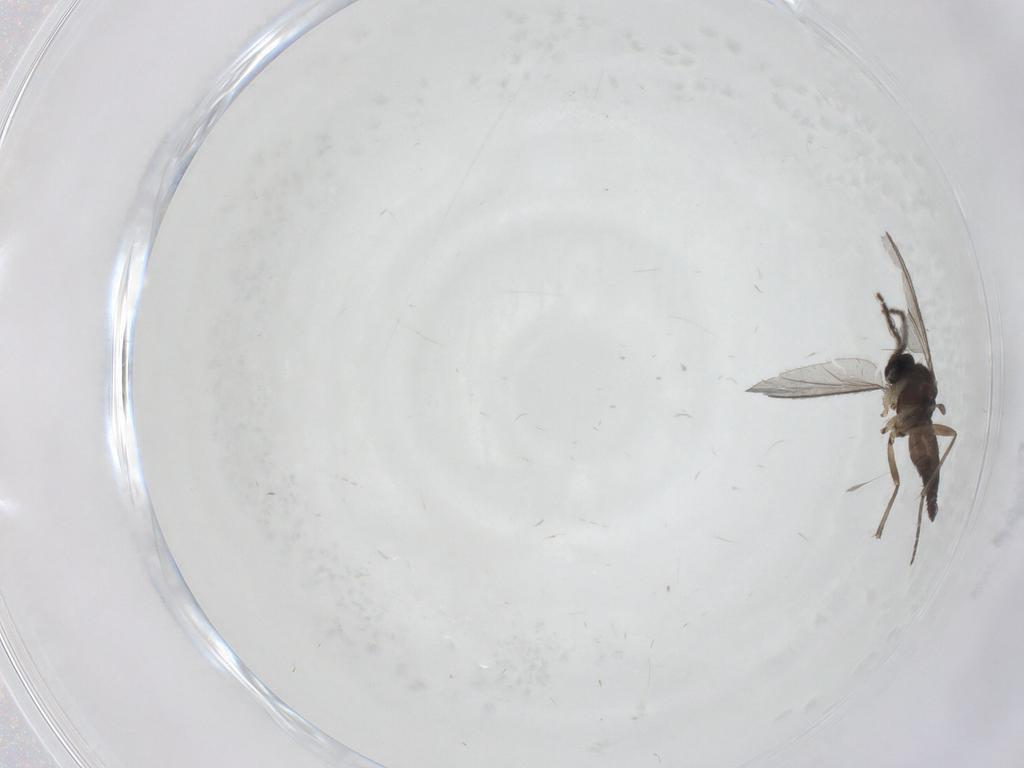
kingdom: Animalia
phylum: Arthropoda
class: Insecta
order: Diptera
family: Sciaridae
